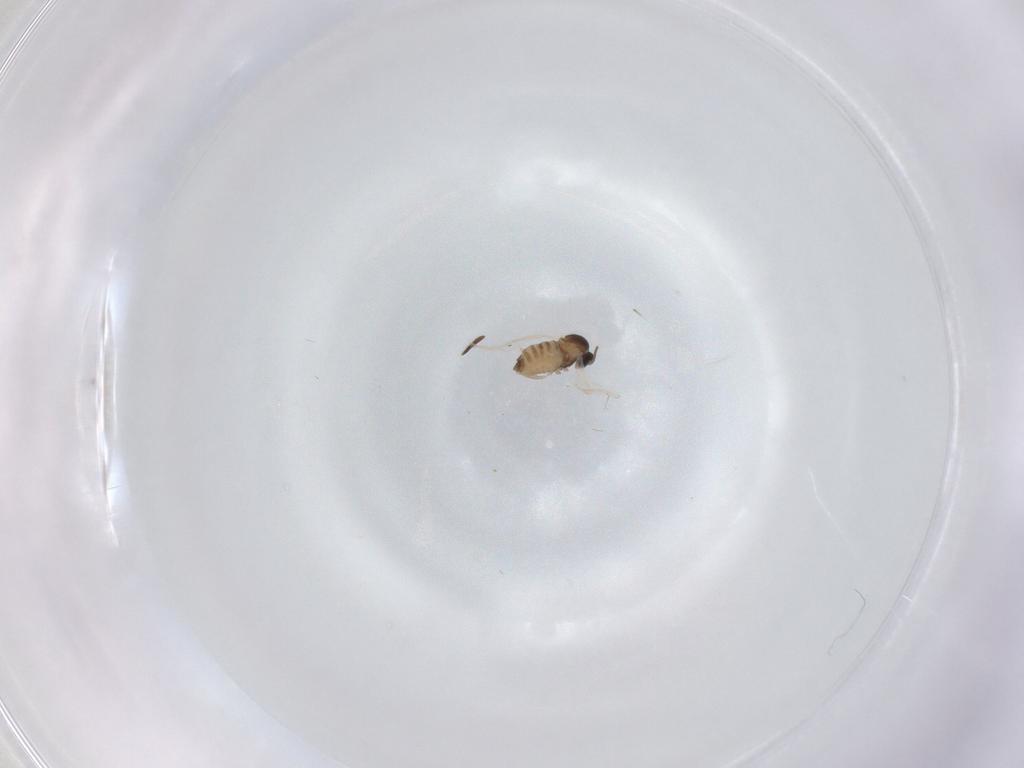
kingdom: Animalia
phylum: Arthropoda
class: Insecta
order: Diptera
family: Cecidomyiidae
